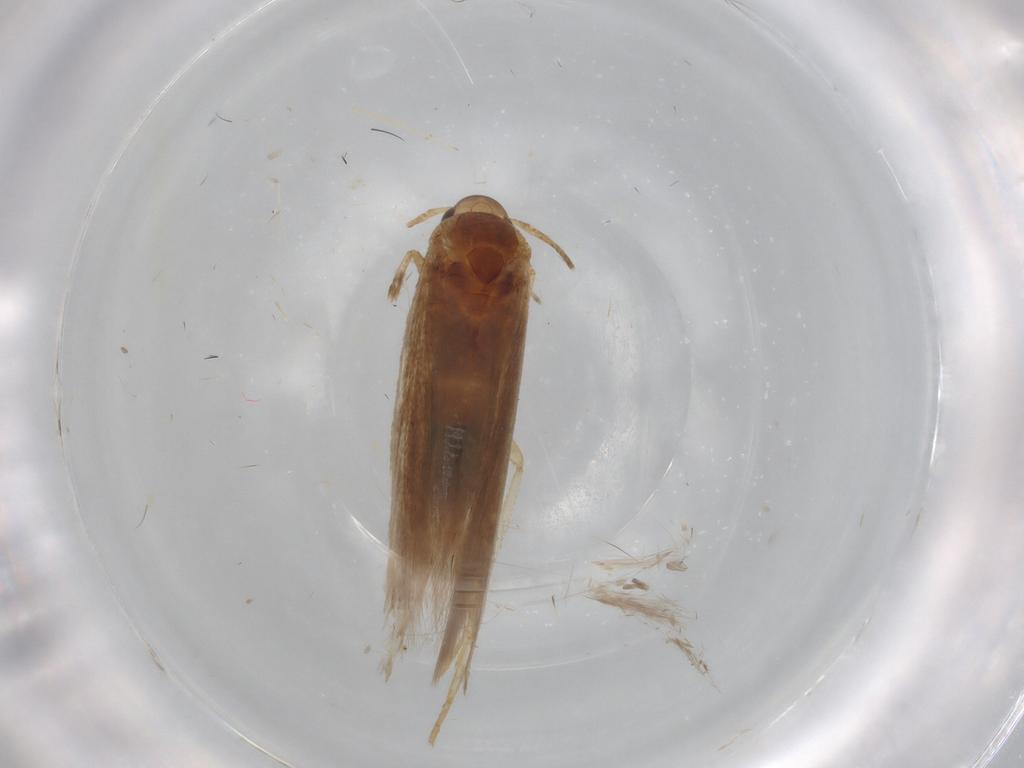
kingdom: Animalia
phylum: Arthropoda
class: Insecta
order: Lepidoptera
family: Gelechiidae
